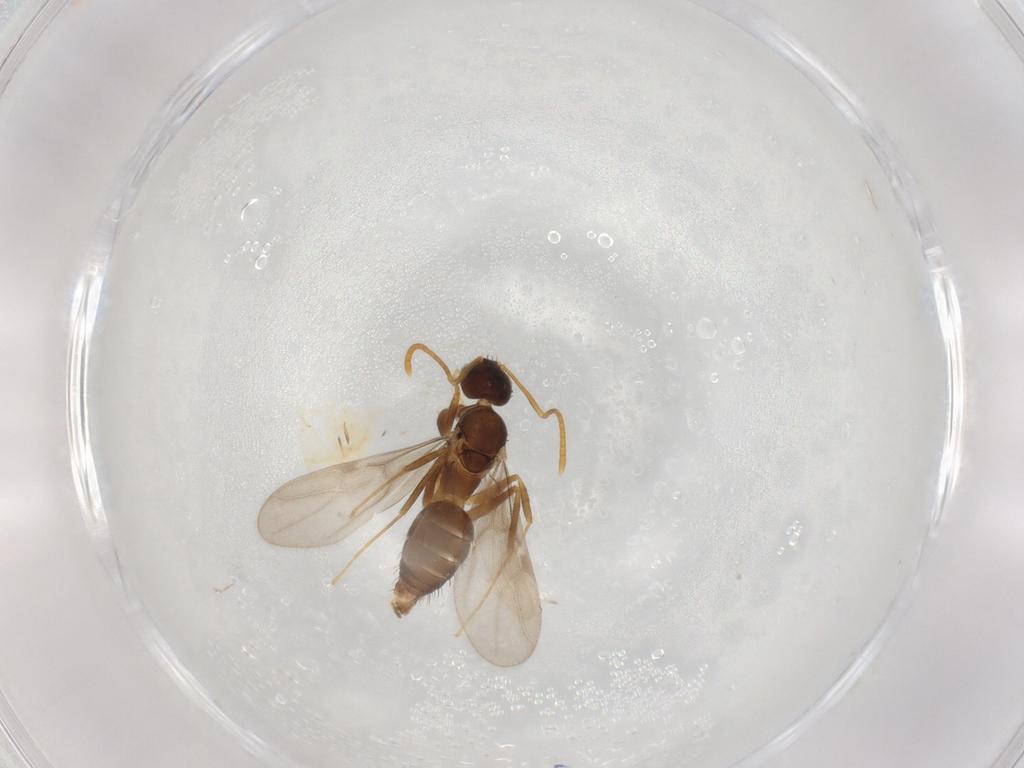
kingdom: Animalia
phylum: Arthropoda
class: Insecta
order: Hymenoptera
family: Formicidae
